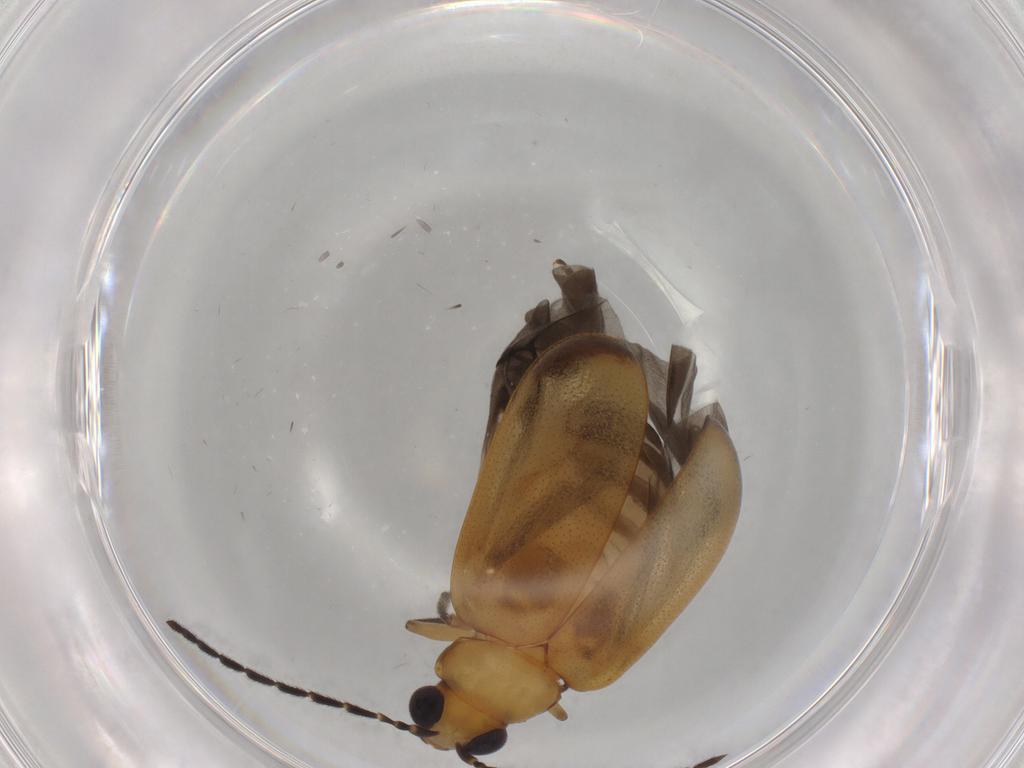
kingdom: Animalia
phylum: Arthropoda
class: Insecta
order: Coleoptera
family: Chrysomelidae
